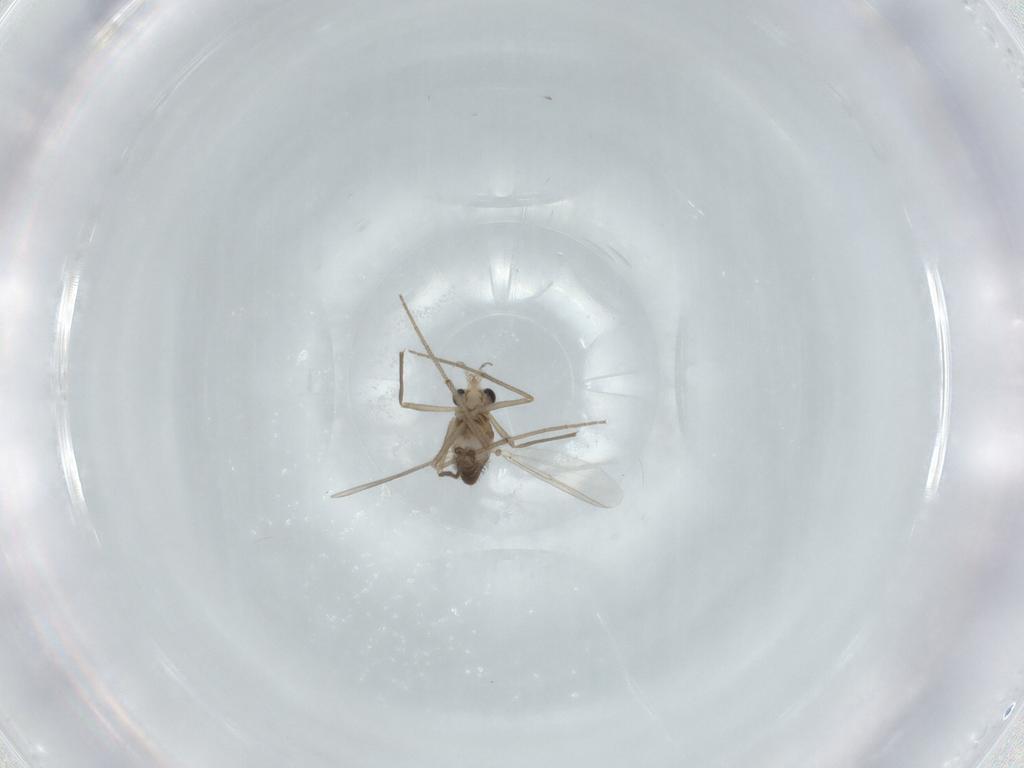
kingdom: Animalia
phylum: Arthropoda
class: Insecta
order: Diptera
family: Chironomidae
